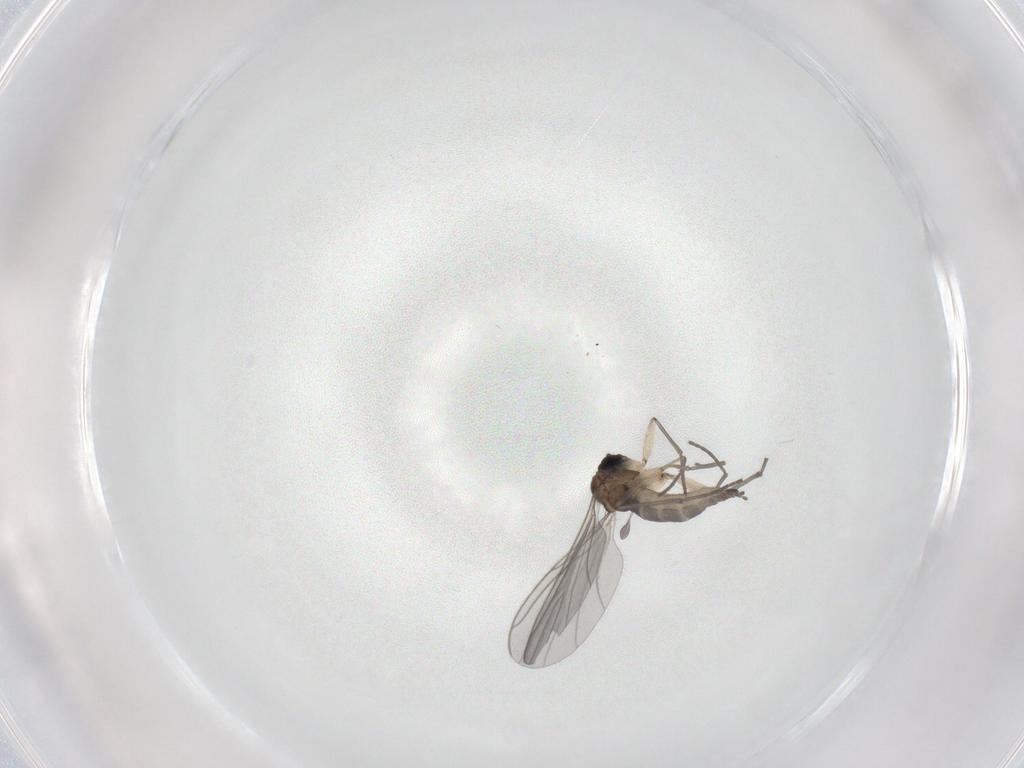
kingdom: Animalia
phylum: Arthropoda
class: Insecta
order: Diptera
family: Sciaridae
